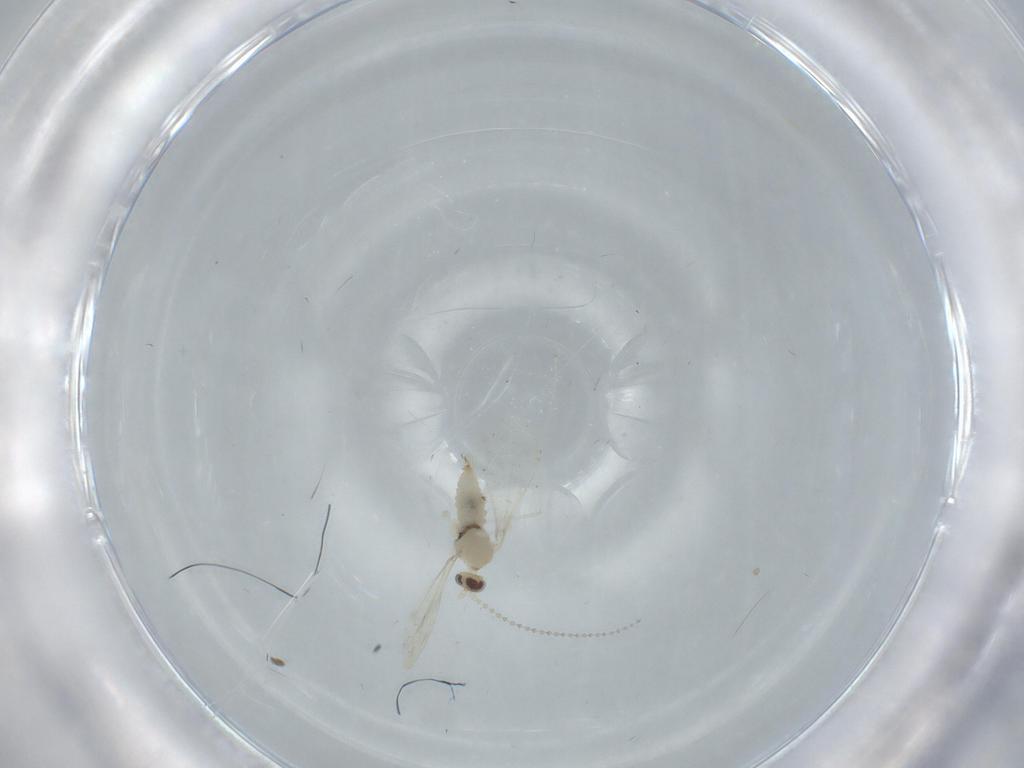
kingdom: Animalia
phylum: Arthropoda
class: Insecta
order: Diptera
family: Cecidomyiidae
